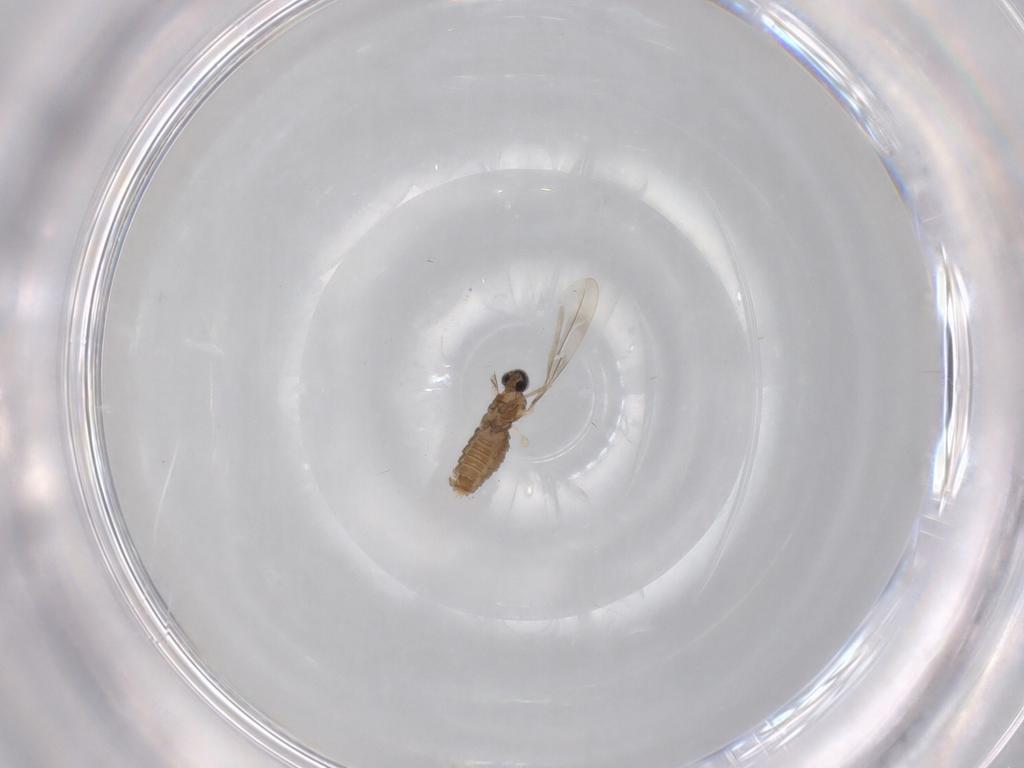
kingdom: Animalia
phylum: Arthropoda
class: Insecta
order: Diptera
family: Cecidomyiidae
